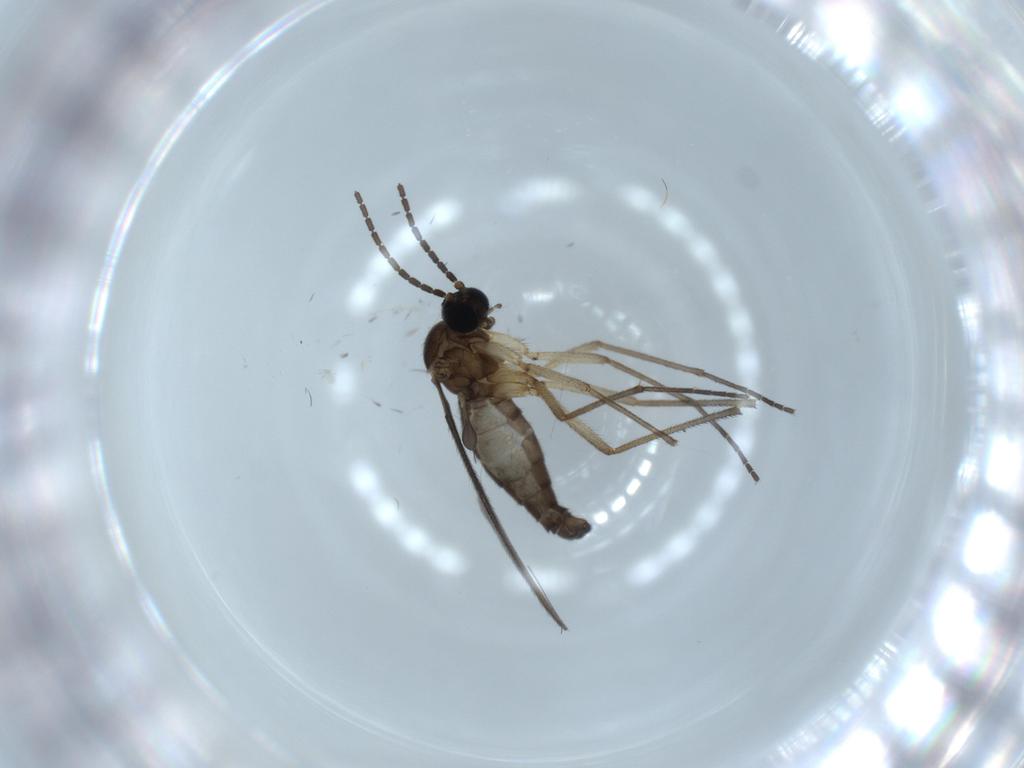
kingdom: Animalia
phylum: Arthropoda
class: Insecta
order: Diptera
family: Sciaridae
